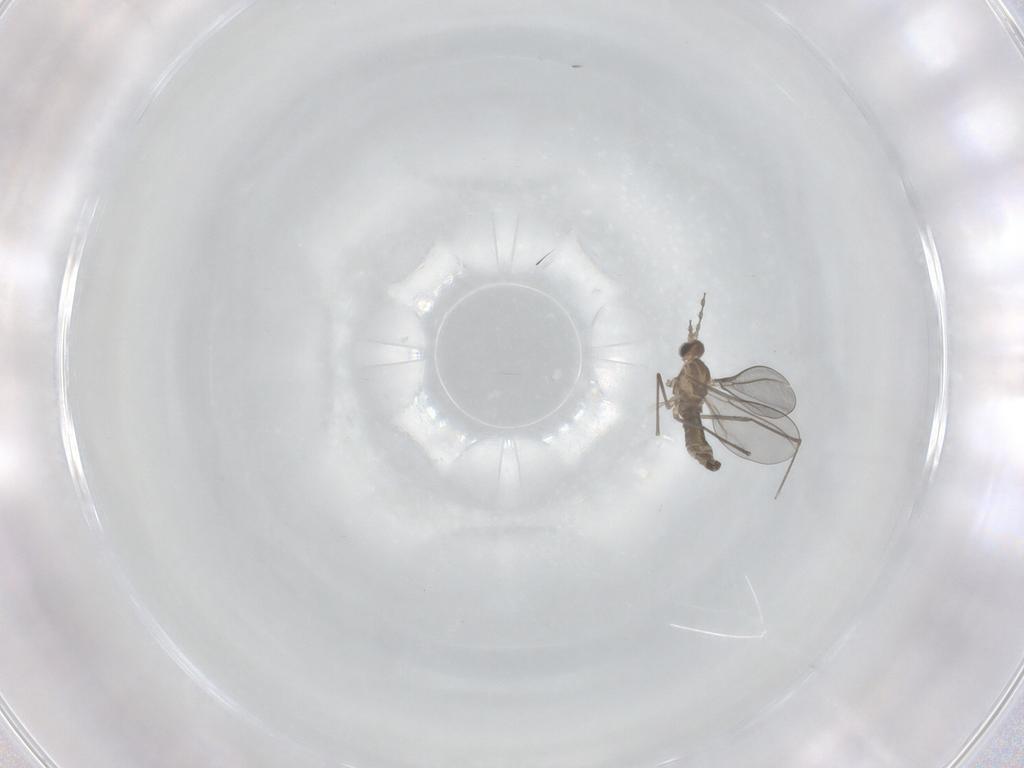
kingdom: Animalia
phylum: Arthropoda
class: Insecta
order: Diptera
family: Cecidomyiidae
